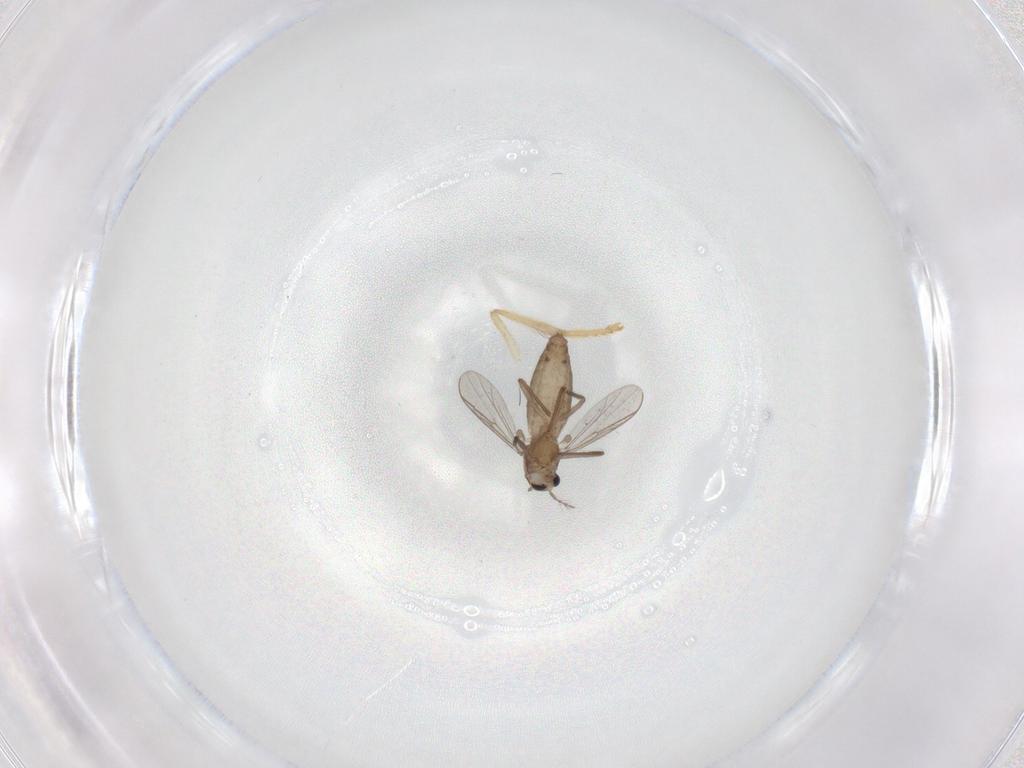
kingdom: Animalia
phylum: Arthropoda
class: Insecta
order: Diptera
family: Chironomidae
